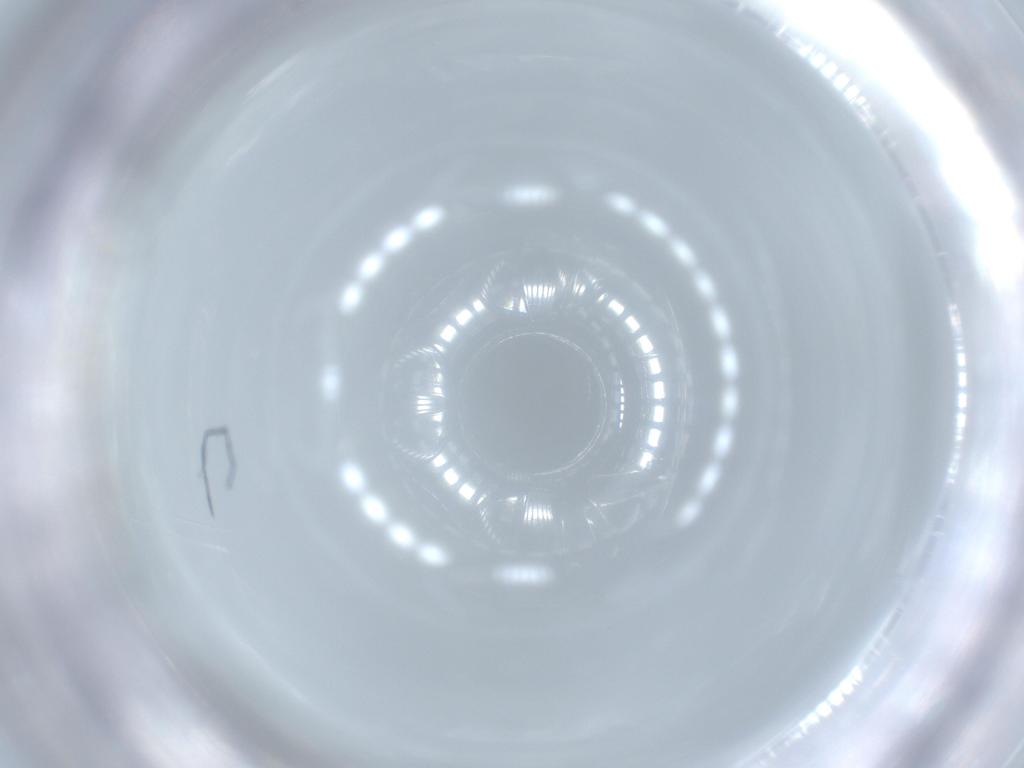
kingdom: Animalia
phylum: Arthropoda
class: Insecta
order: Diptera
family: Sciaridae
